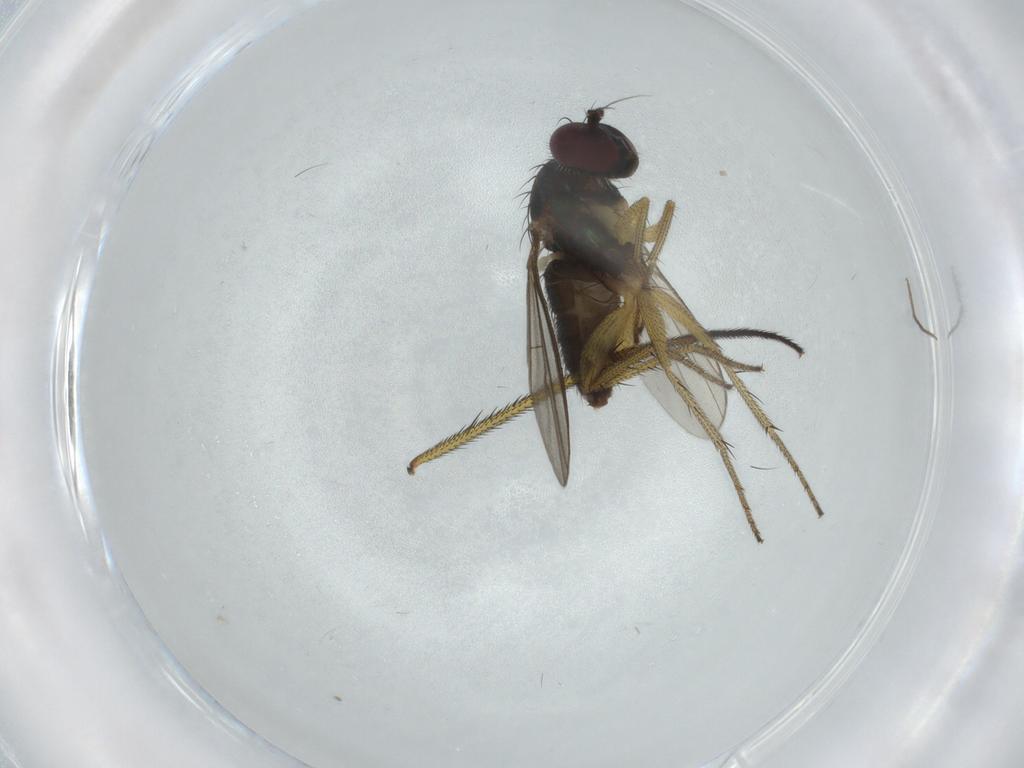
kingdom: Animalia
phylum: Arthropoda
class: Insecta
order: Diptera
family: Dolichopodidae
